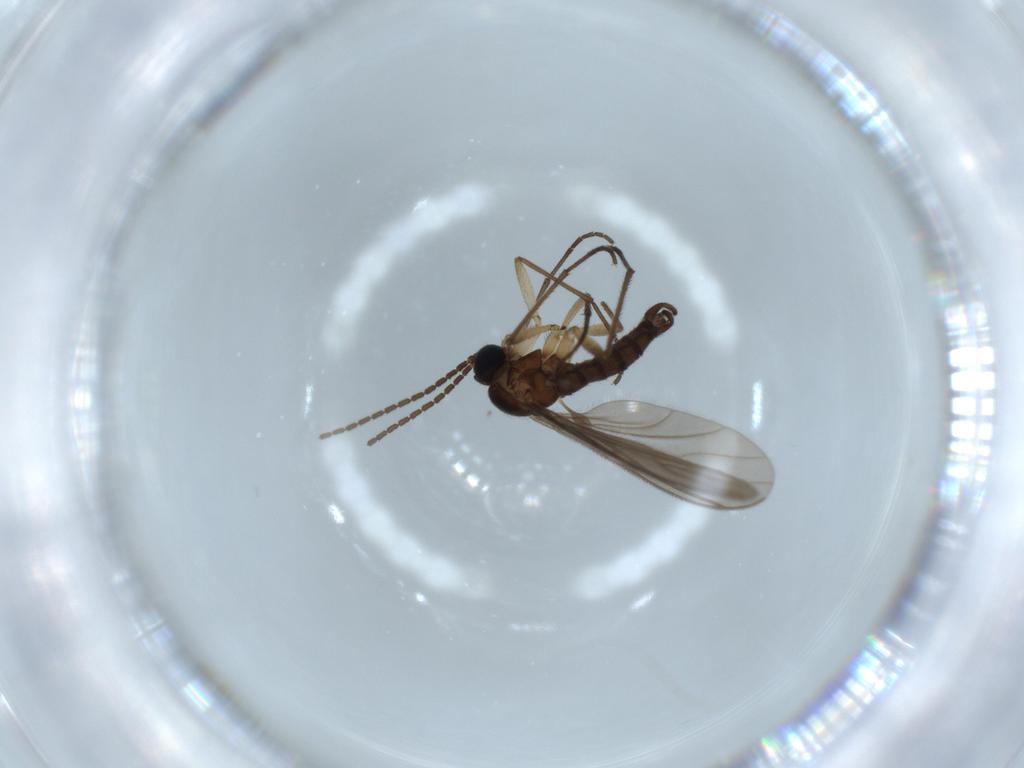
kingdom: Animalia
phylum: Arthropoda
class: Insecta
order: Diptera
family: Sciaridae
